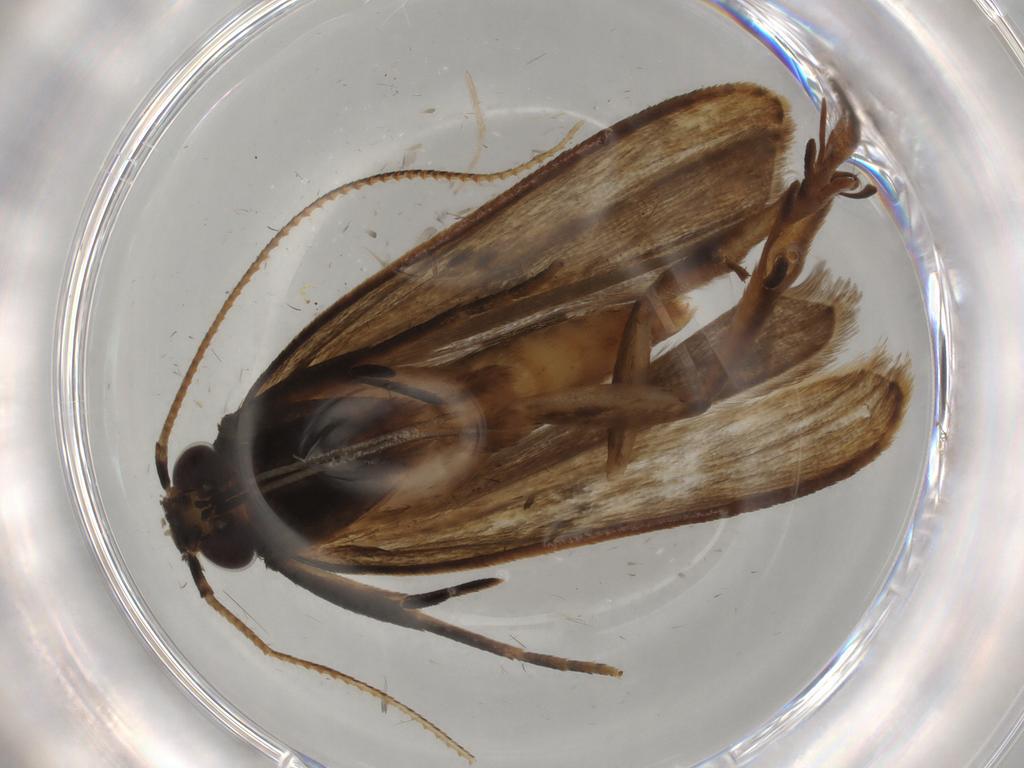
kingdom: Animalia
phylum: Arthropoda
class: Insecta
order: Lepidoptera
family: Gelechiidae
